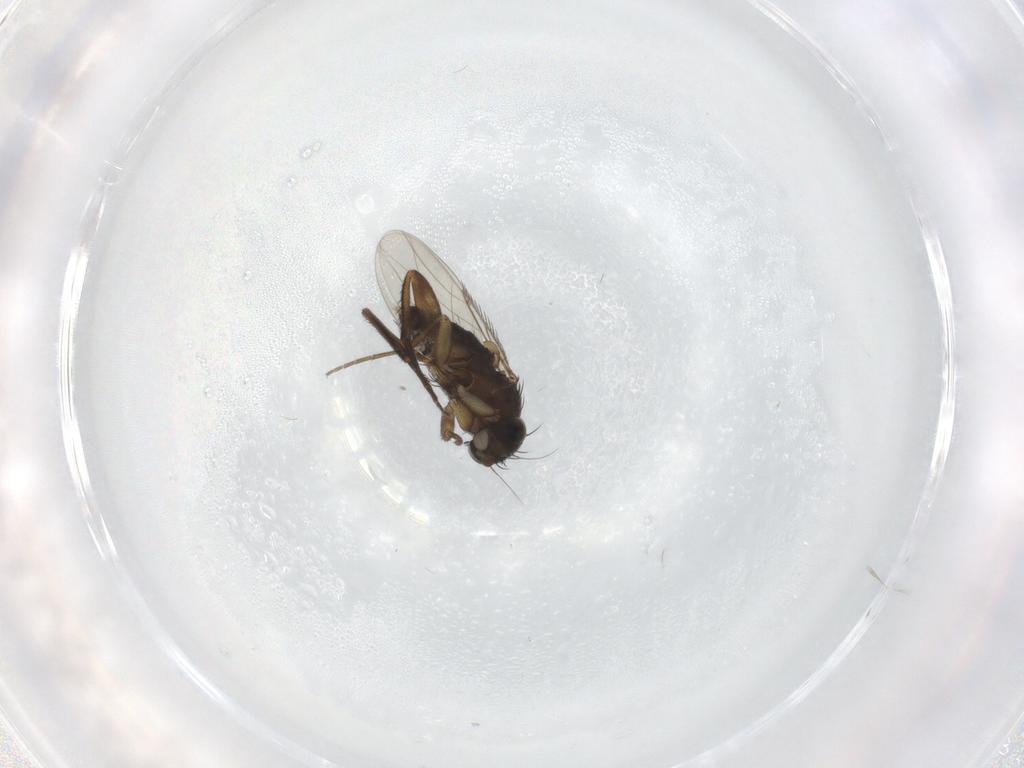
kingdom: Animalia
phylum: Arthropoda
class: Insecta
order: Diptera
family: Phoridae
